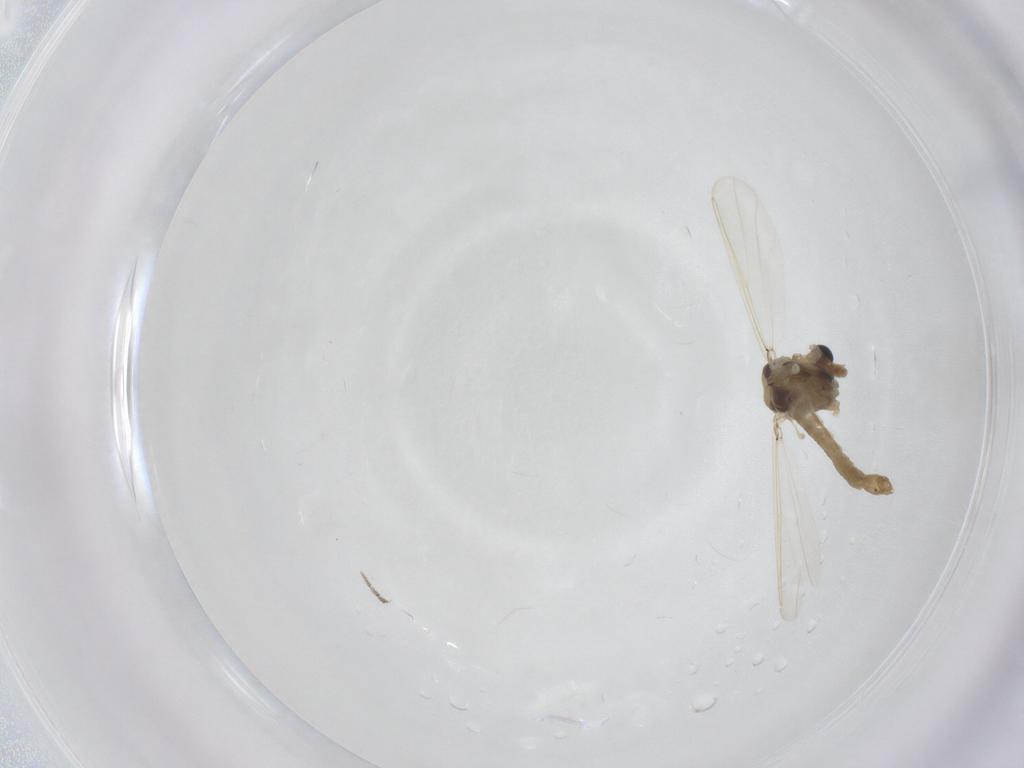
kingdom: Animalia
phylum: Arthropoda
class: Insecta
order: Diptera
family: Chironomidae
